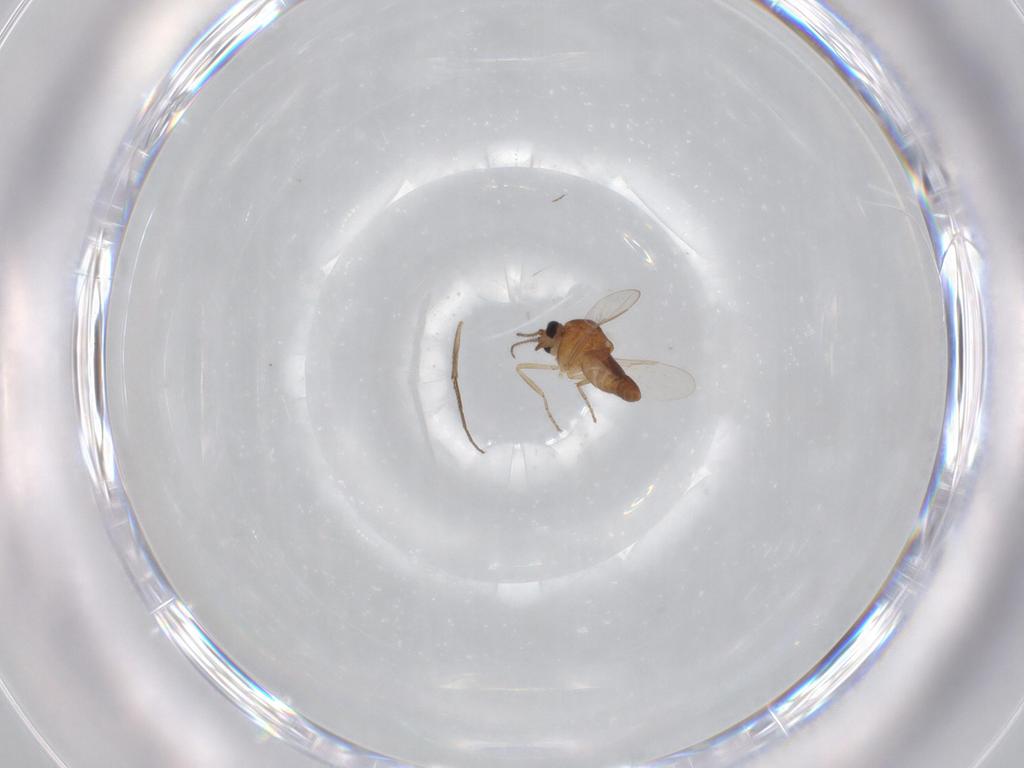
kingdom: Animalia
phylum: Arthropoda
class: Insecta
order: Diptera
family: Ceratopogonidae
